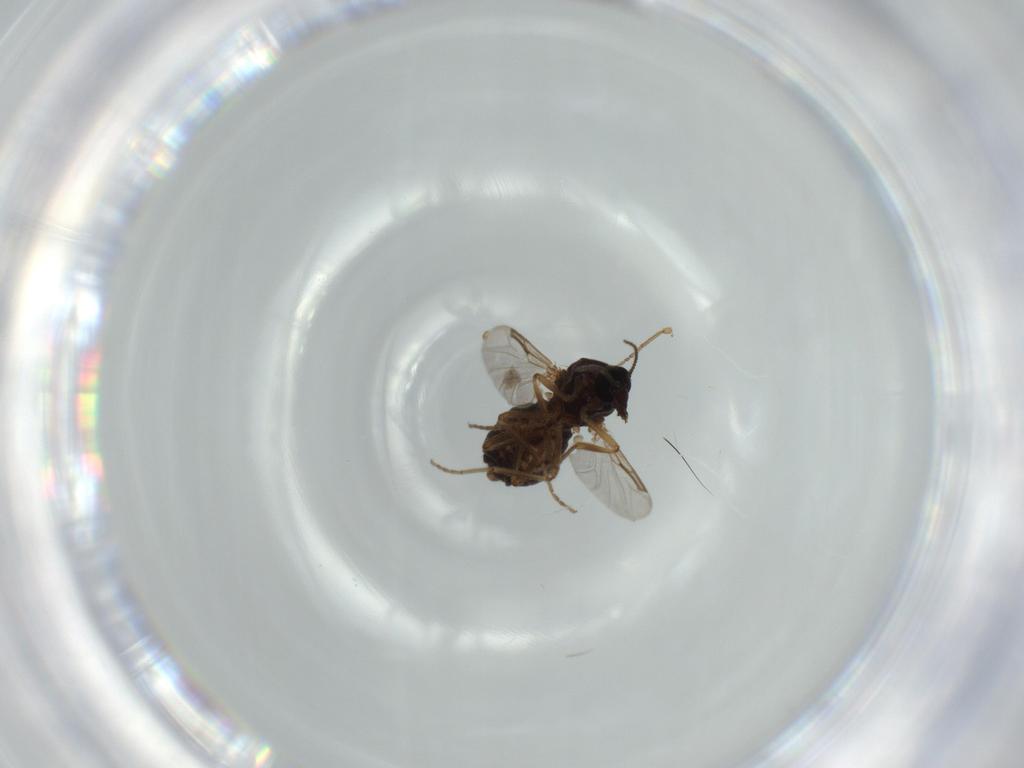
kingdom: Animalia
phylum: Arthropoda
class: Insecta
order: Diptera
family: Ceratopogonidae
